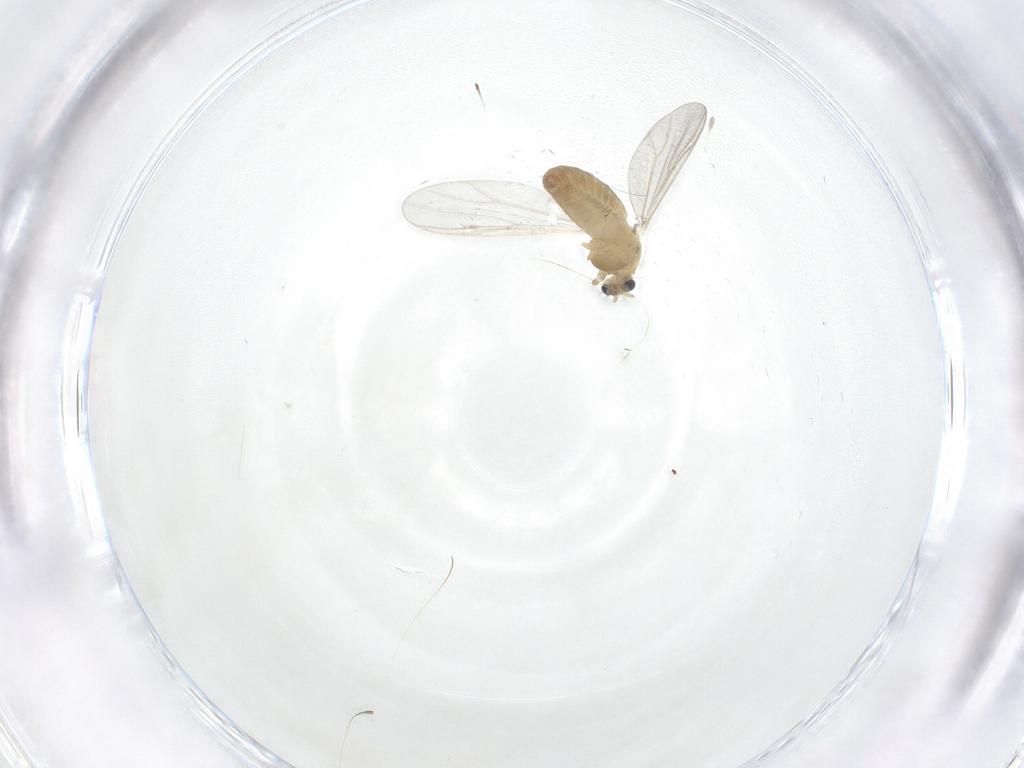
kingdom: Animalia
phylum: Arthropoda
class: Insecta
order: Diptera
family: Chironomidae
